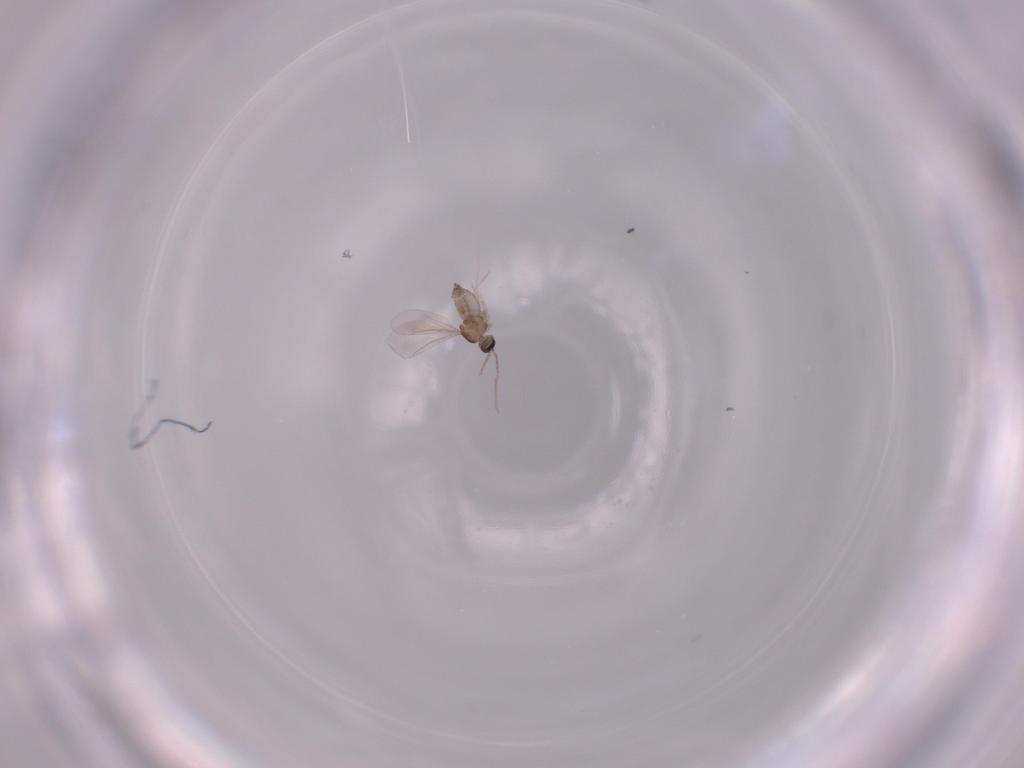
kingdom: Animalia
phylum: Arthropoda
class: Insecta
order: Diptera
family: Cecidomyiidae
